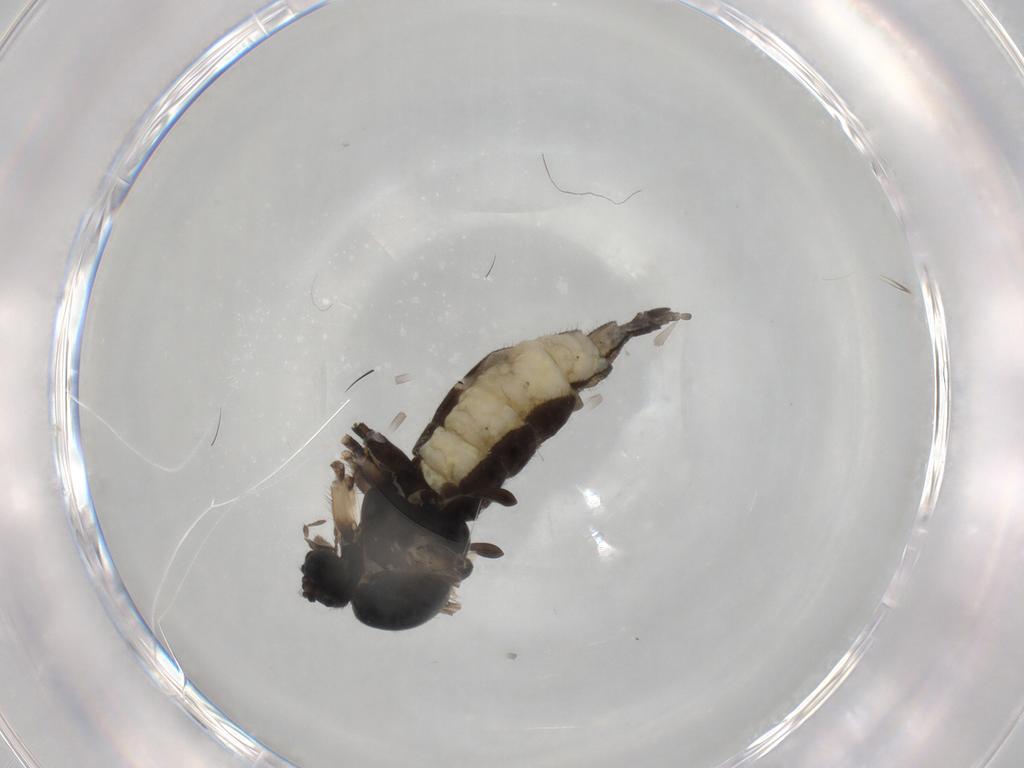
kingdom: Animalia
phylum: Arthropoda
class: Insecta
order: Diptera
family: Sciaridae
